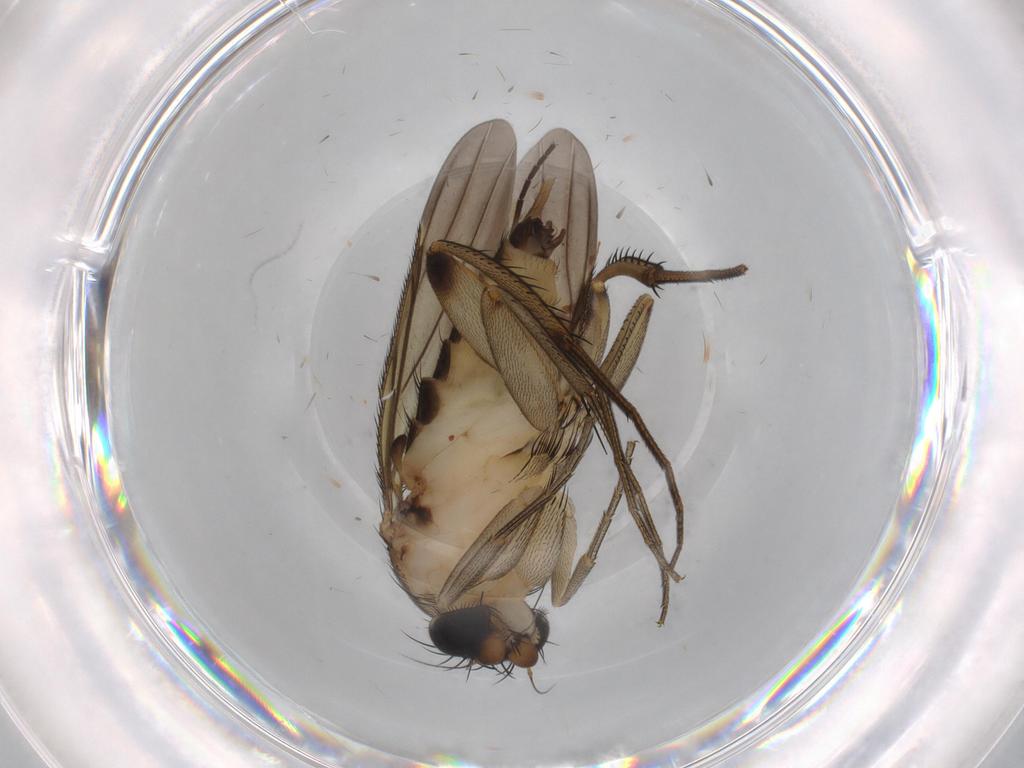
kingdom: Animalia
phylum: Arthropoda
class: Insecta
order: Diptera
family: Phoridae
